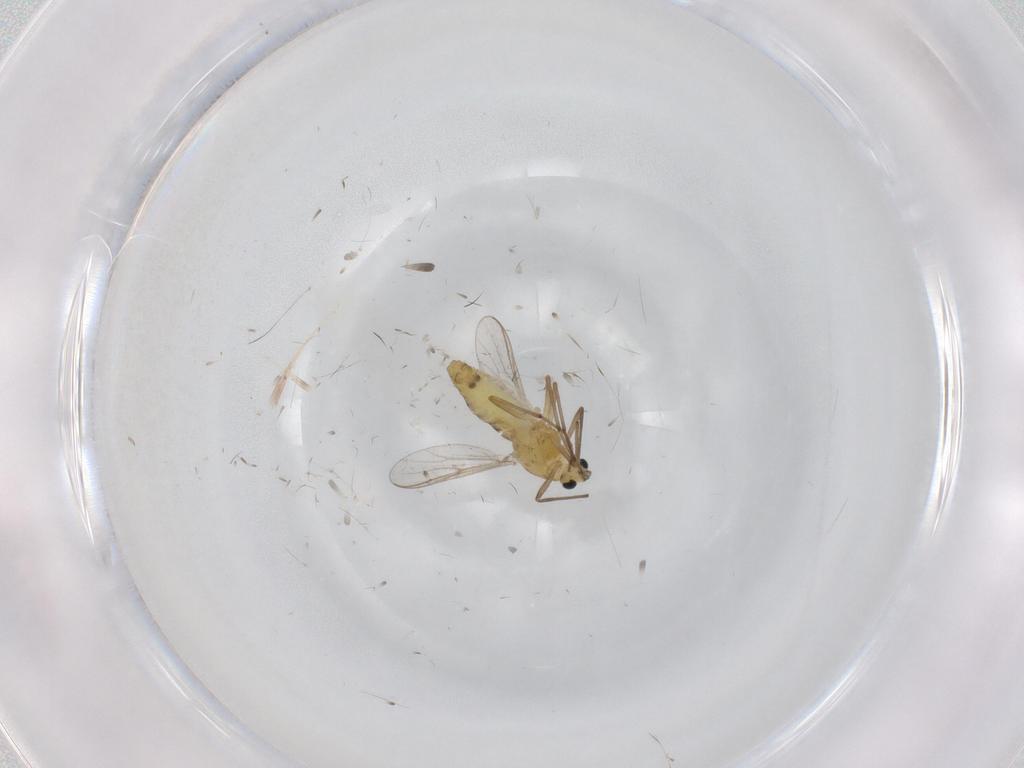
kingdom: Animalia
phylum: Arthropoda
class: Insecta
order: Diptera
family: Chironomidae
